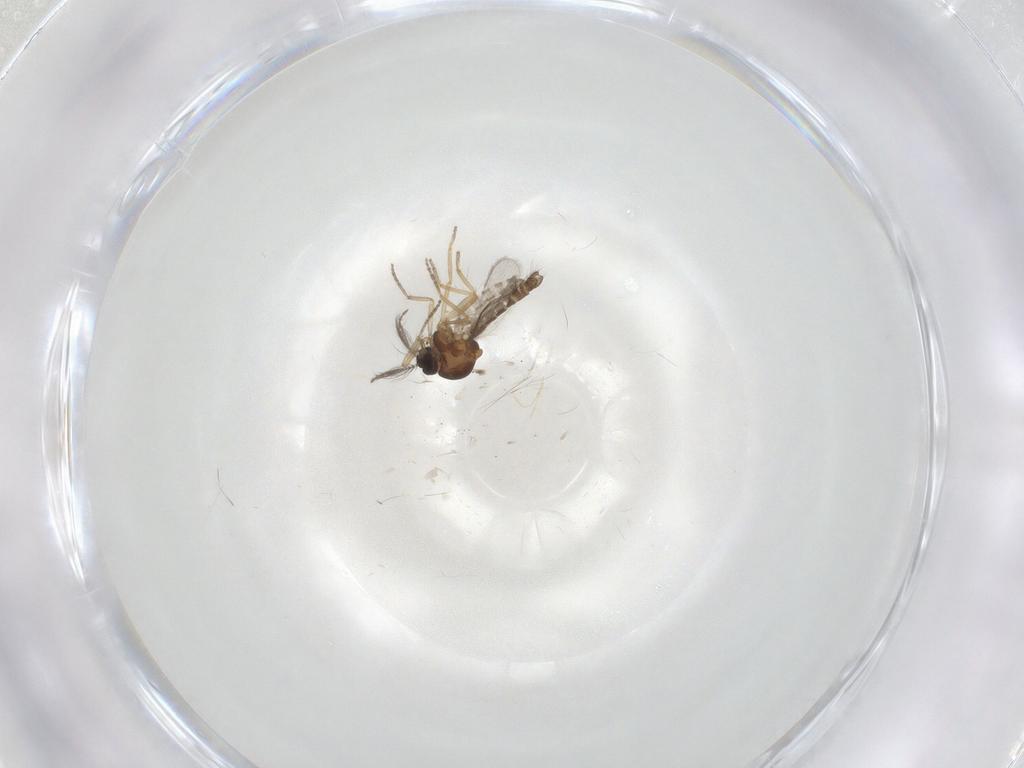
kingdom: Animalia
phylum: Arthropoda
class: Insecta
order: Diptera
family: Ceratopogonidae
